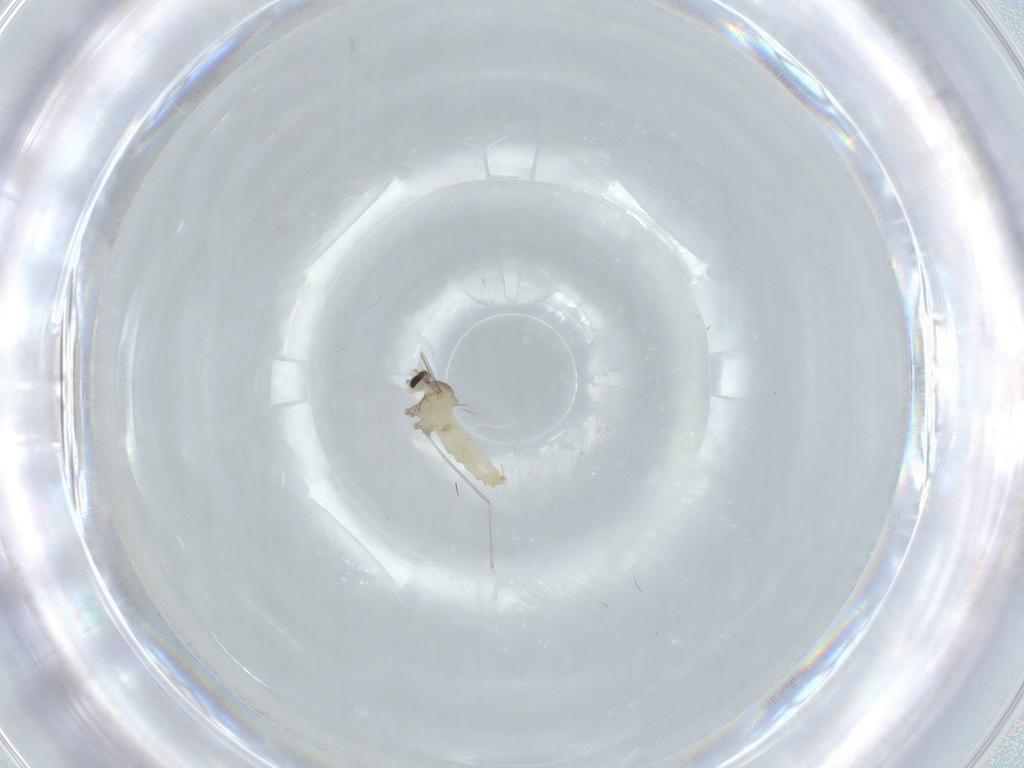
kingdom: Animalia
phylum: Arthropoda
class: Insecta
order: Diptera
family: Cecidomyiidae
